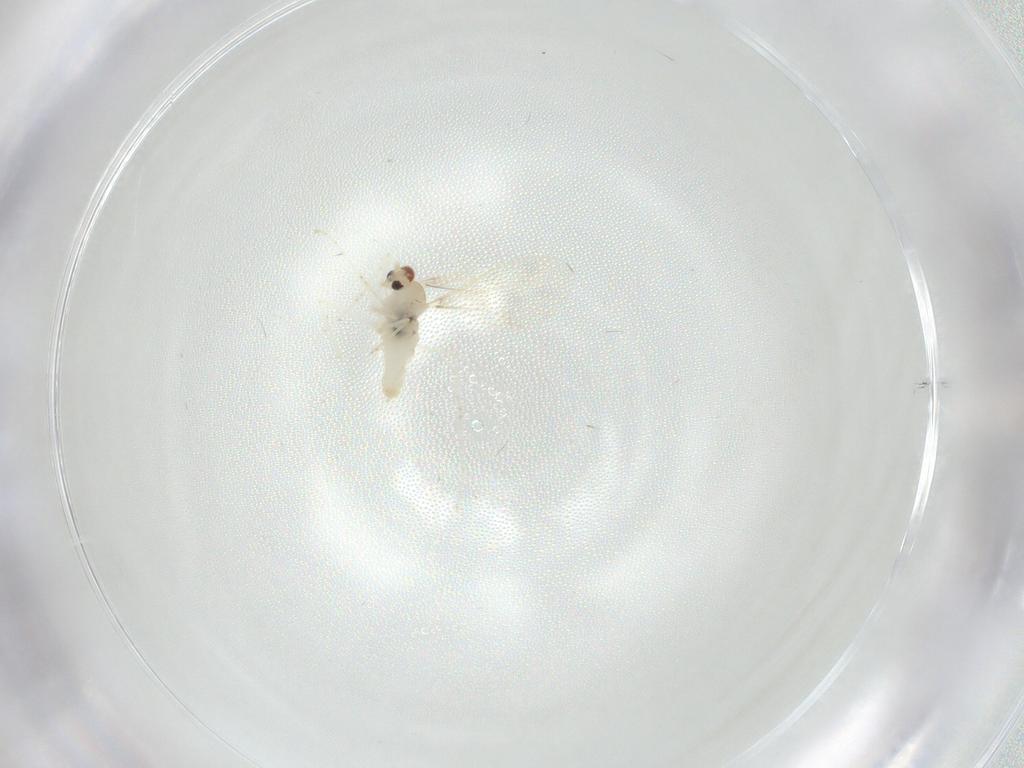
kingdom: Animalia
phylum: Arthropoda
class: Insecta
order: Diptera
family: Cecidomyiidae
